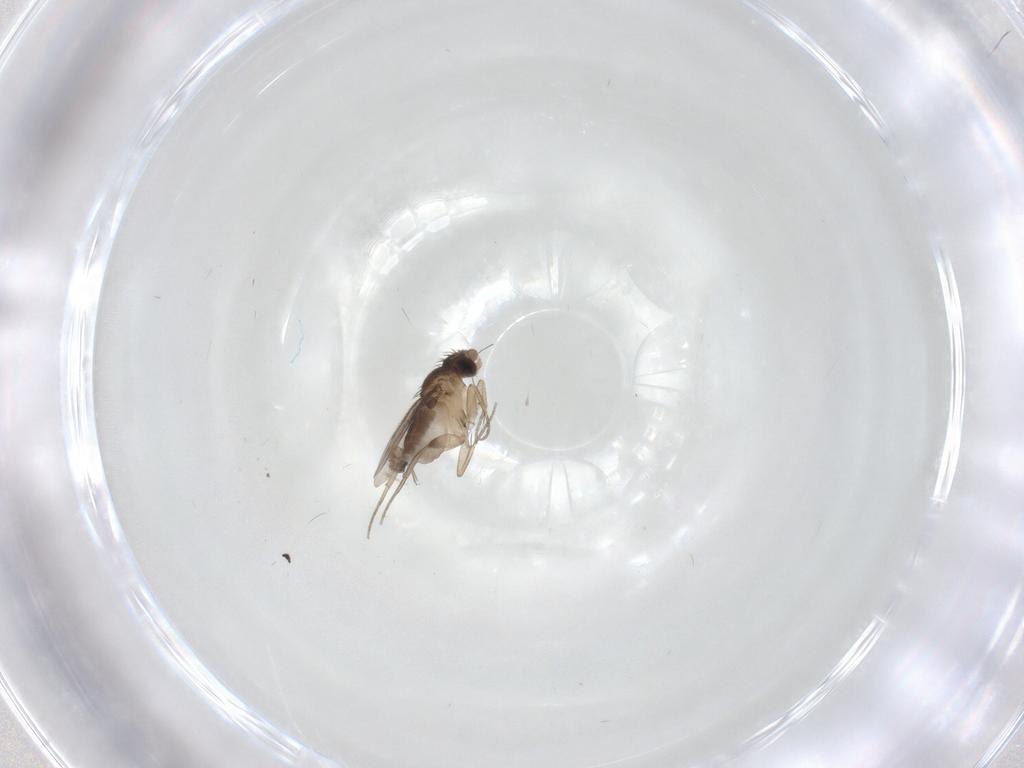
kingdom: Animalia
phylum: Arthropoda
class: Insecta
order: Diptera
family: Phoridae
